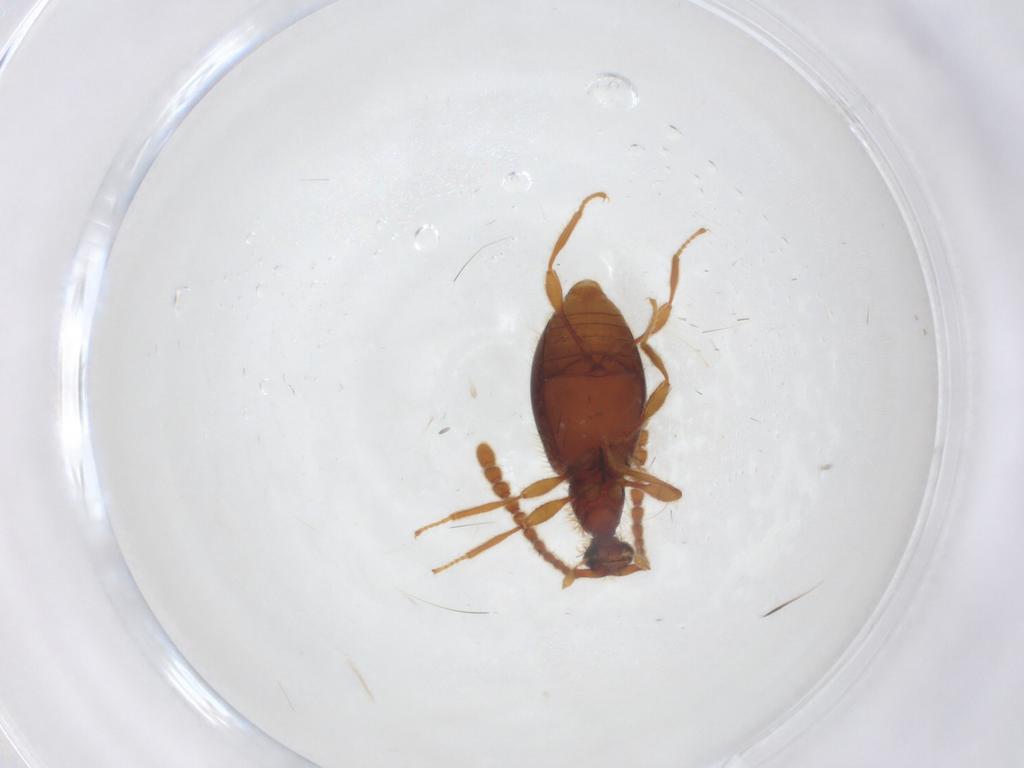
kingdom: Animalia
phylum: Arthropoda
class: Insecta
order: Coleoptera
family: Staphylinidae
